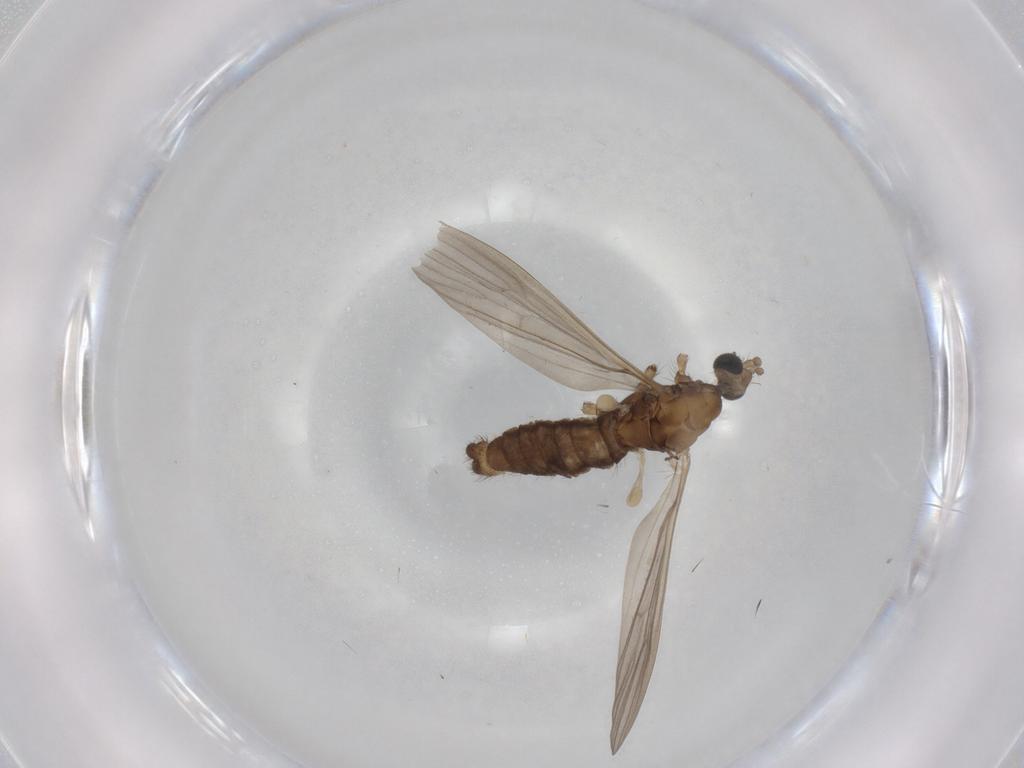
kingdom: Animalia
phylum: Arthropoda
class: Insecta
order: Diptera
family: Limoniidae
